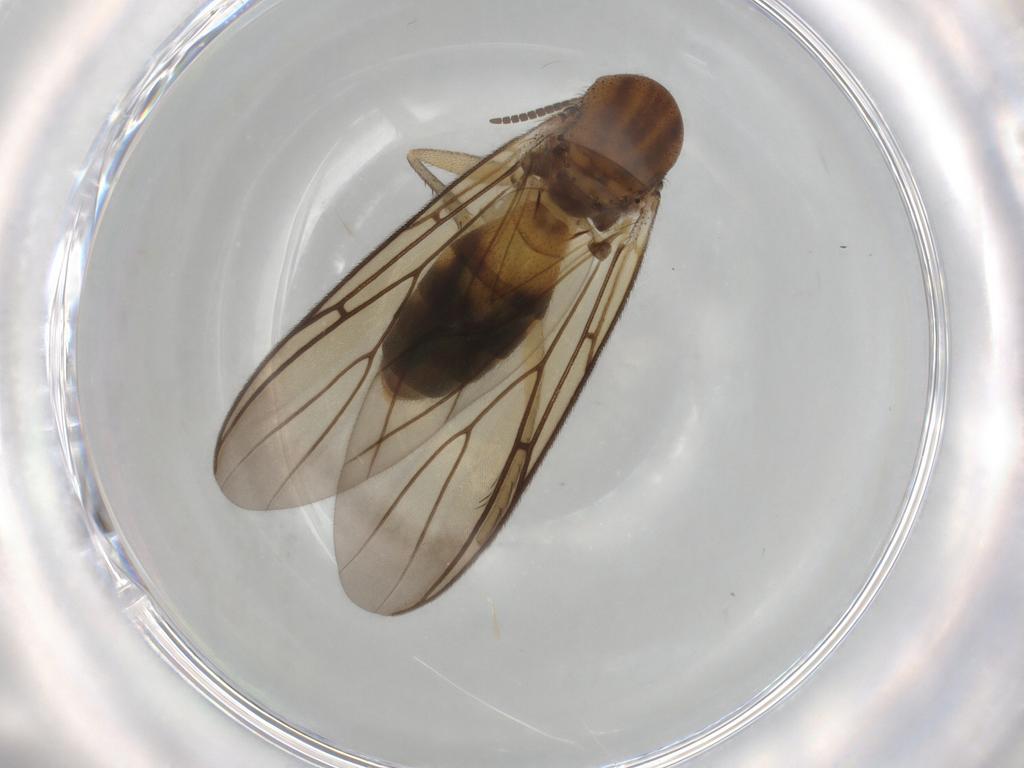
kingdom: Animalia
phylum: Arthropoda
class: Insecta
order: Diptera
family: Mycetophilidae
